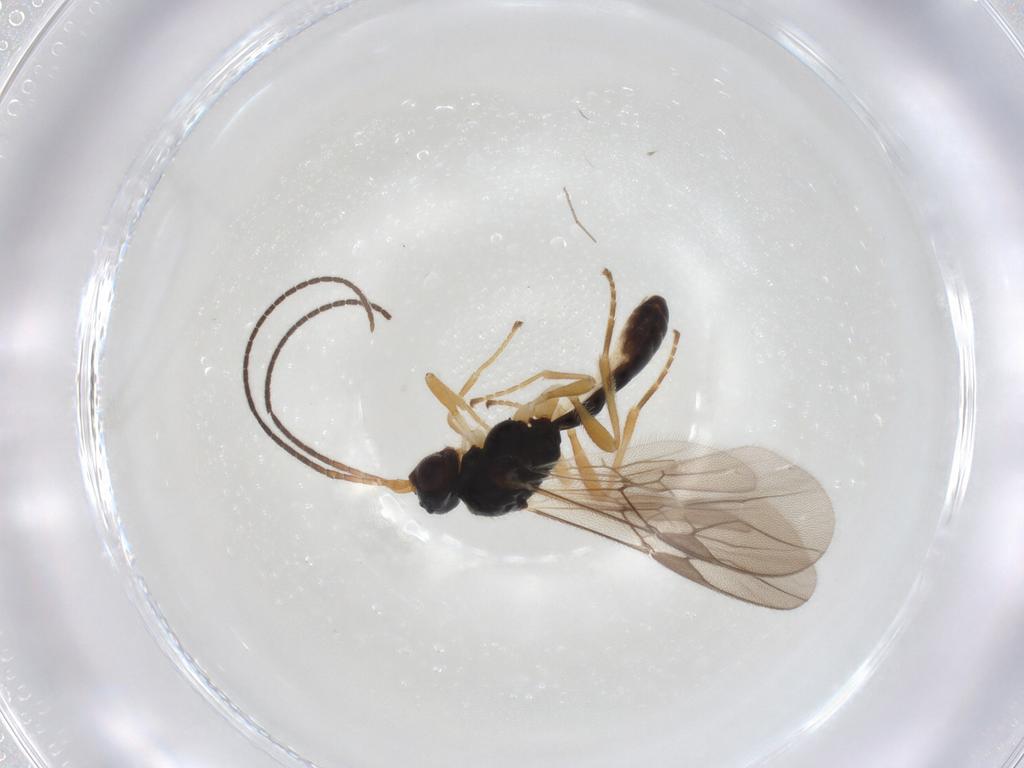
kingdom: Animalia
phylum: Arthropoda
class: Insecta
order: Hymenoptera
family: Braconidae
